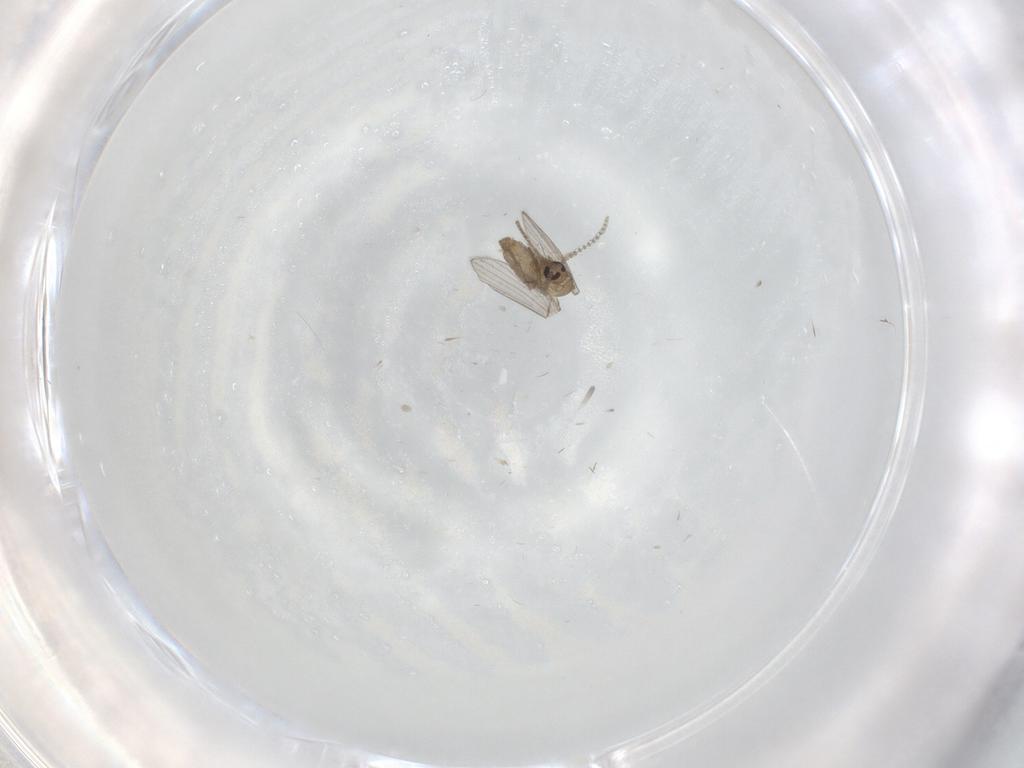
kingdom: Animalia
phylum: Arthropoda
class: Insecta
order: Diptera
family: Psychodidae
